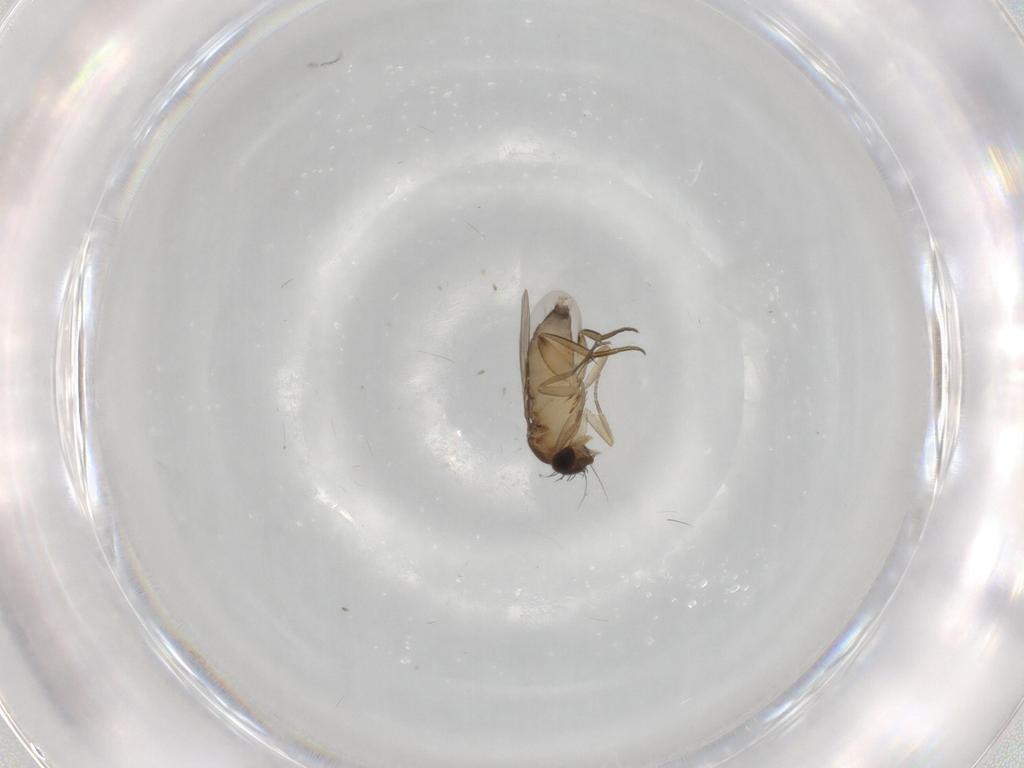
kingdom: Animalia
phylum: Arthropoda
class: Insecta
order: Diptera
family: Phoridae
